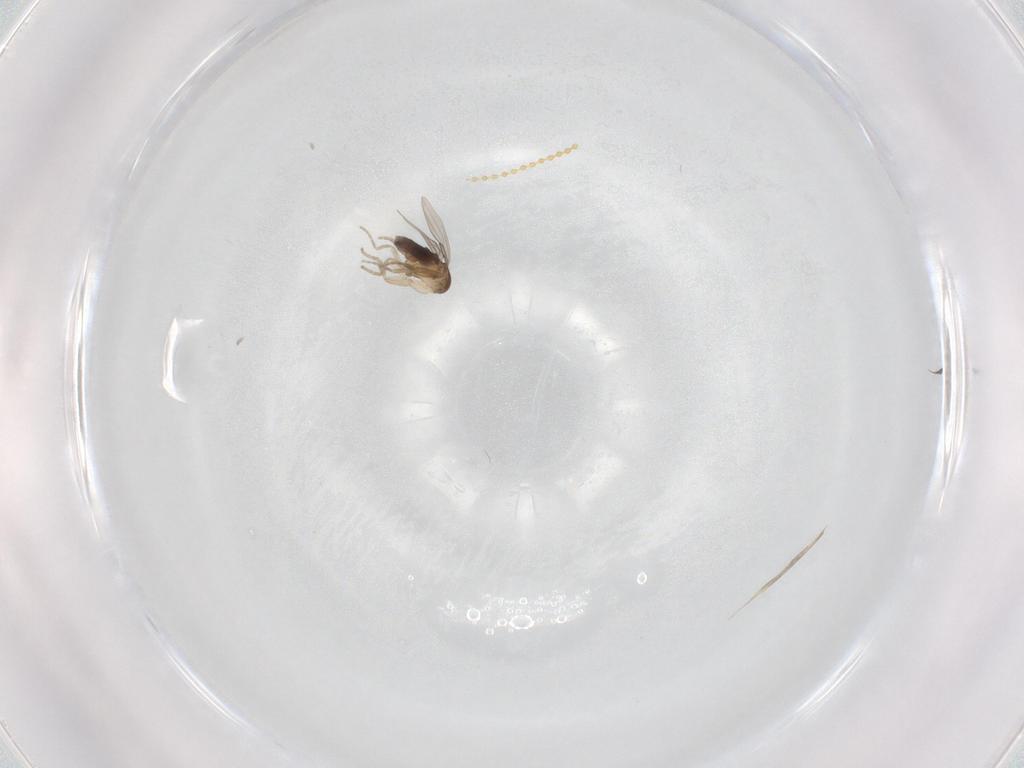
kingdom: Animalia
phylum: Arthropoda
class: Insecta
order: Diptera
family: Phoridae
